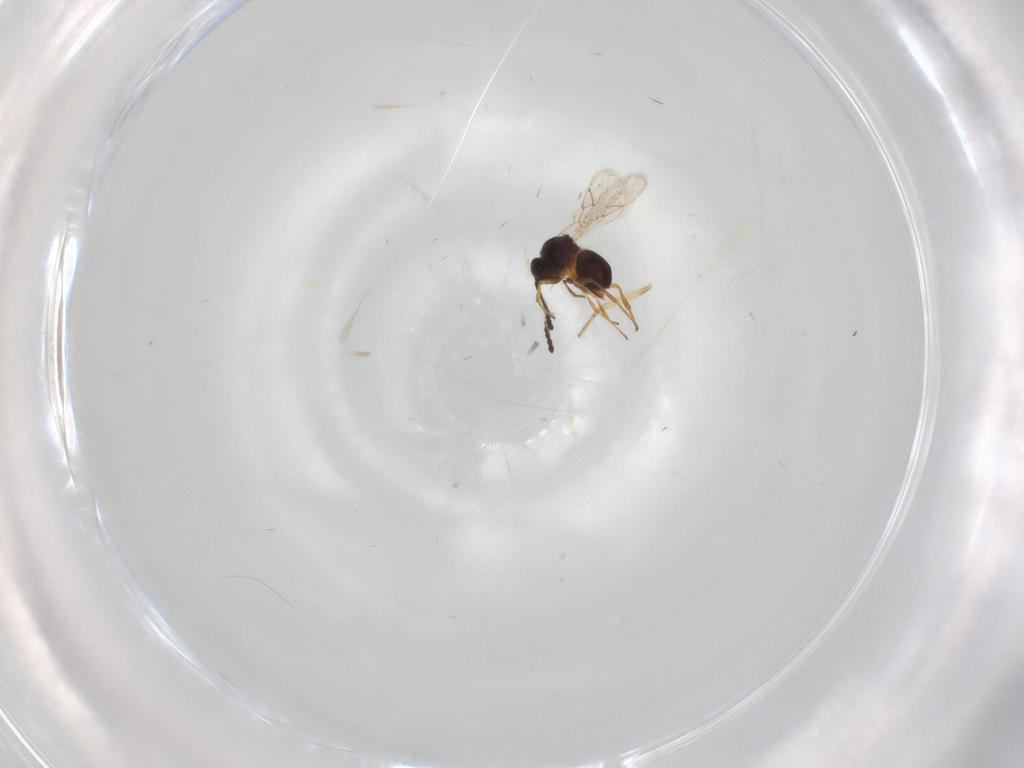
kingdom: Animalia
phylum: Arthropoda
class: Insecta
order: Hymenoptera
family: Figitidae
